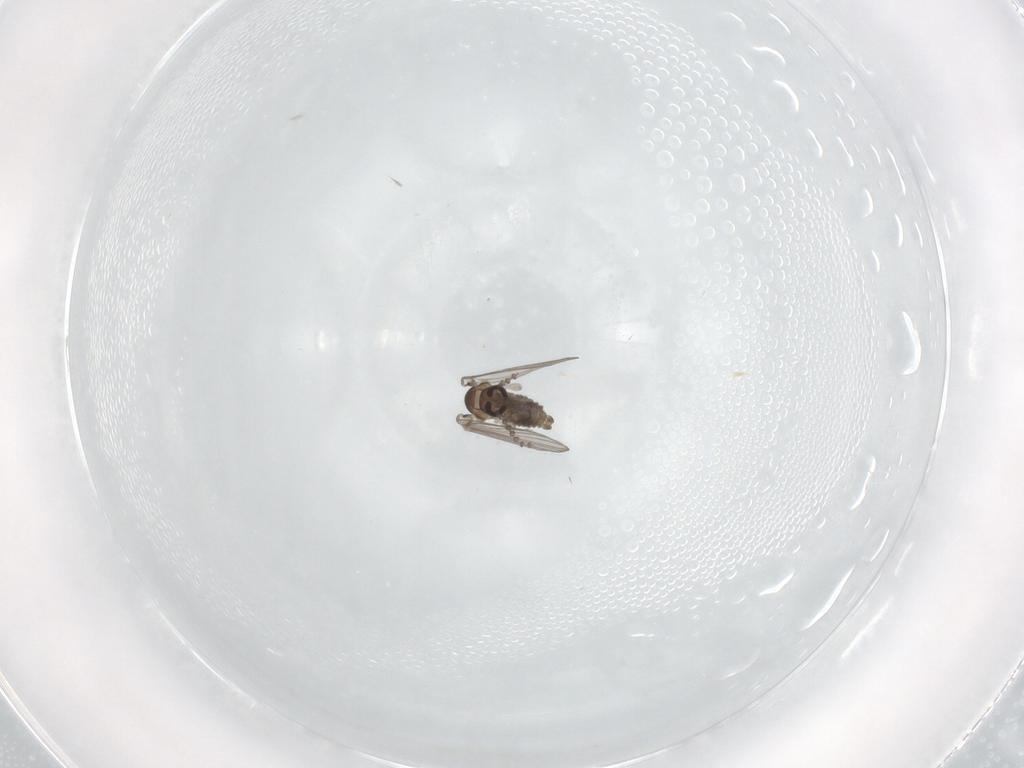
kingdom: Animalia
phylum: Arthropoda
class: Insecta
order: Diptera
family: Psychodidae
